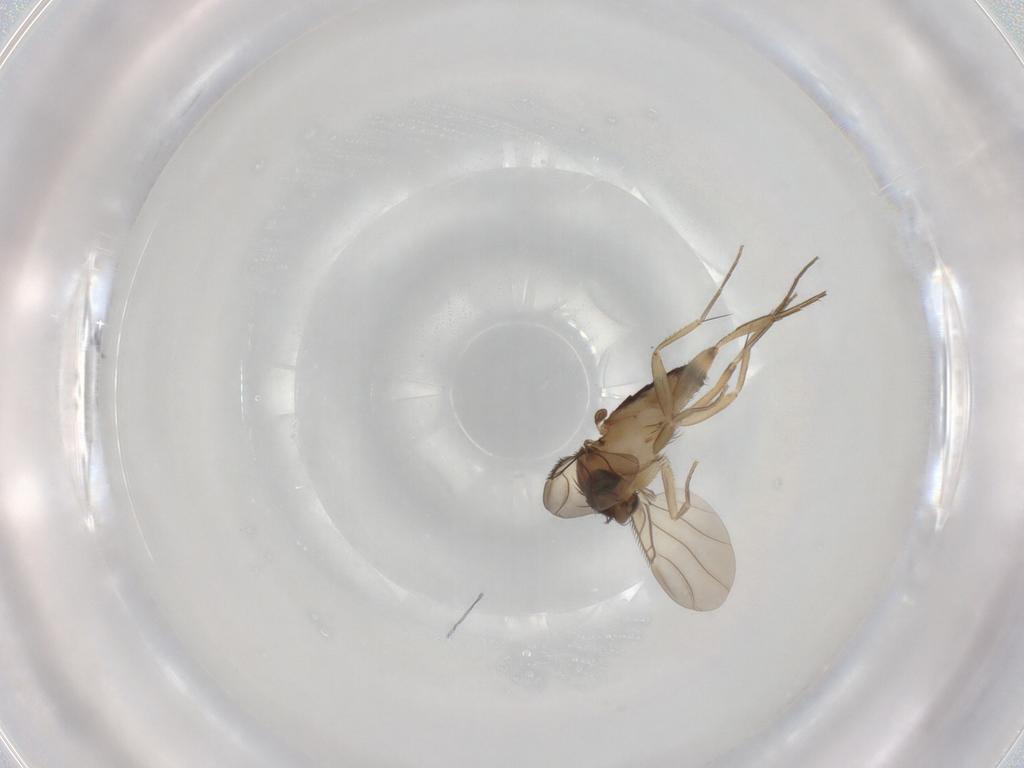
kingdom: Animalia
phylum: Arthropoda
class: Insecta
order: Diptera
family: Phoridae
